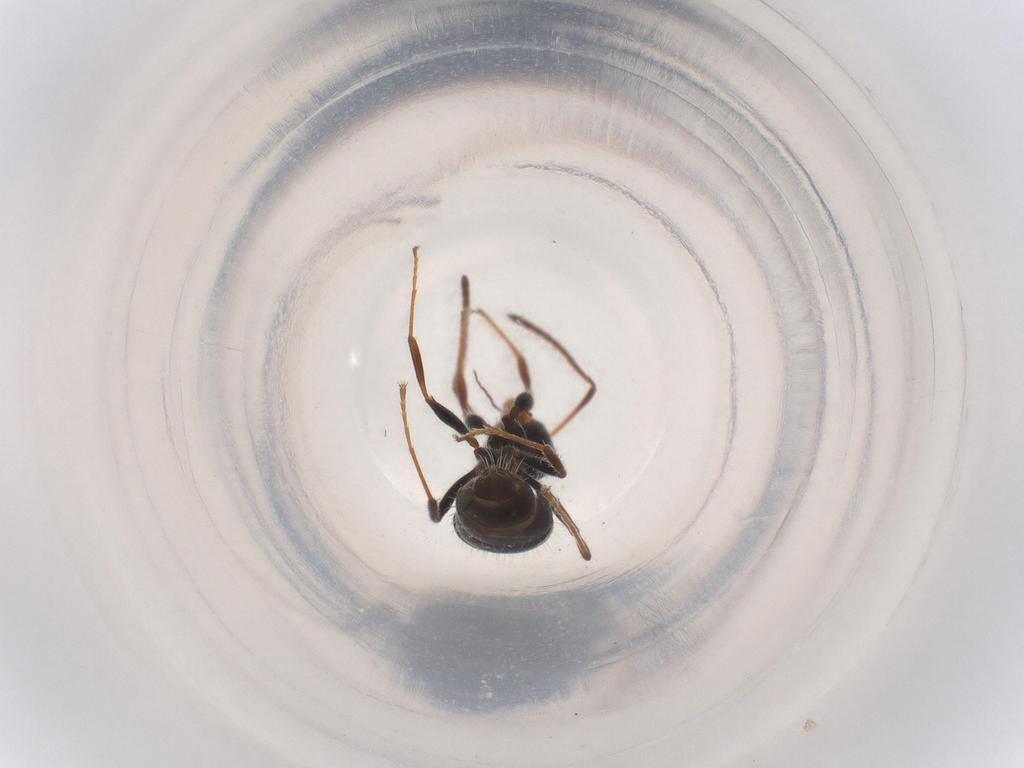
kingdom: Animalia
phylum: Arthropoda
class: Insecta
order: Hymenoptera
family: Formicidae
